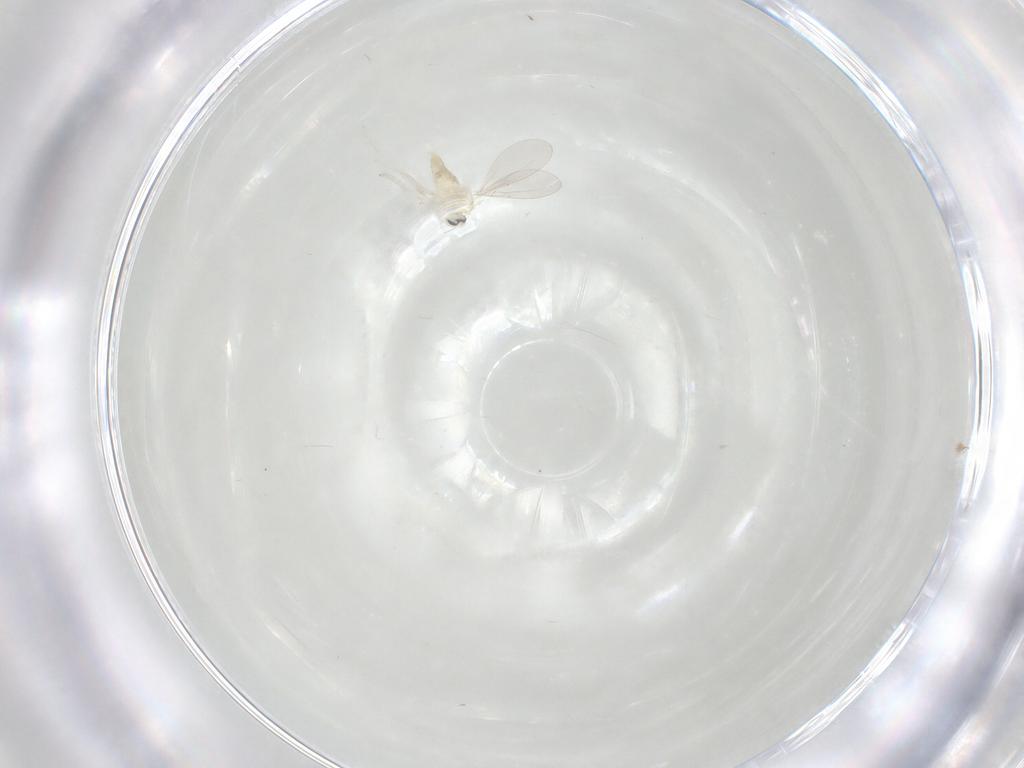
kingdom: Animalia
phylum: Arthropoda
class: Insecta
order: Diptera
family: Cecidomyiidae
